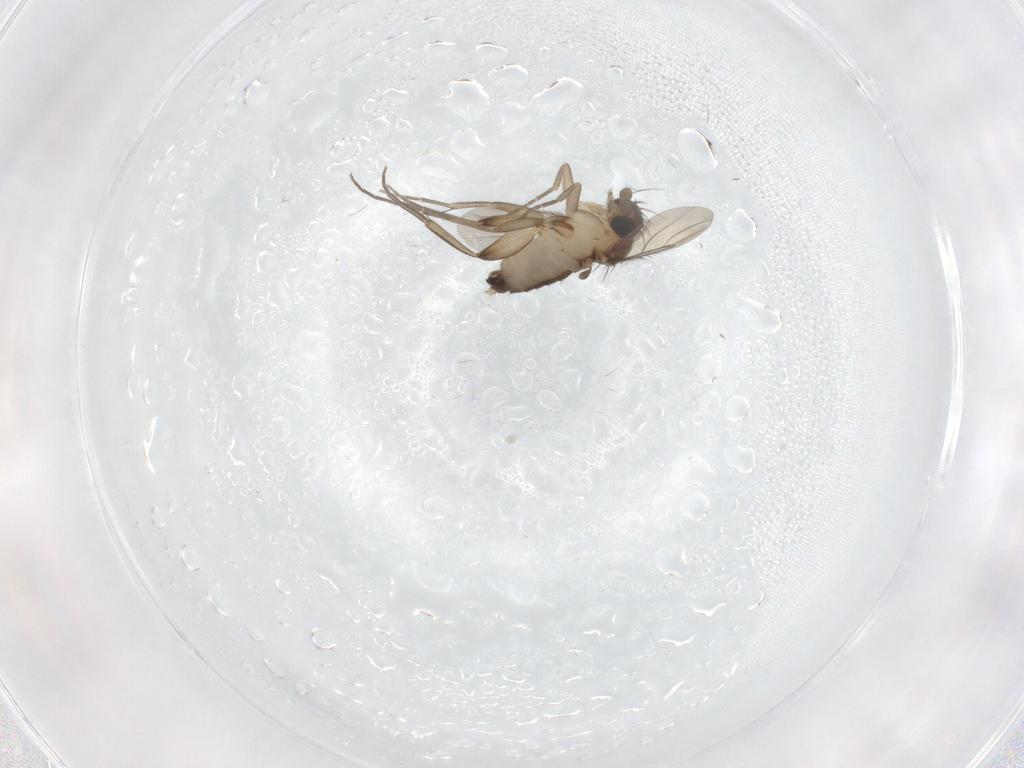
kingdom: Animalia
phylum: Arthropoda
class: Insecta
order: Diptera
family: Phoridae
